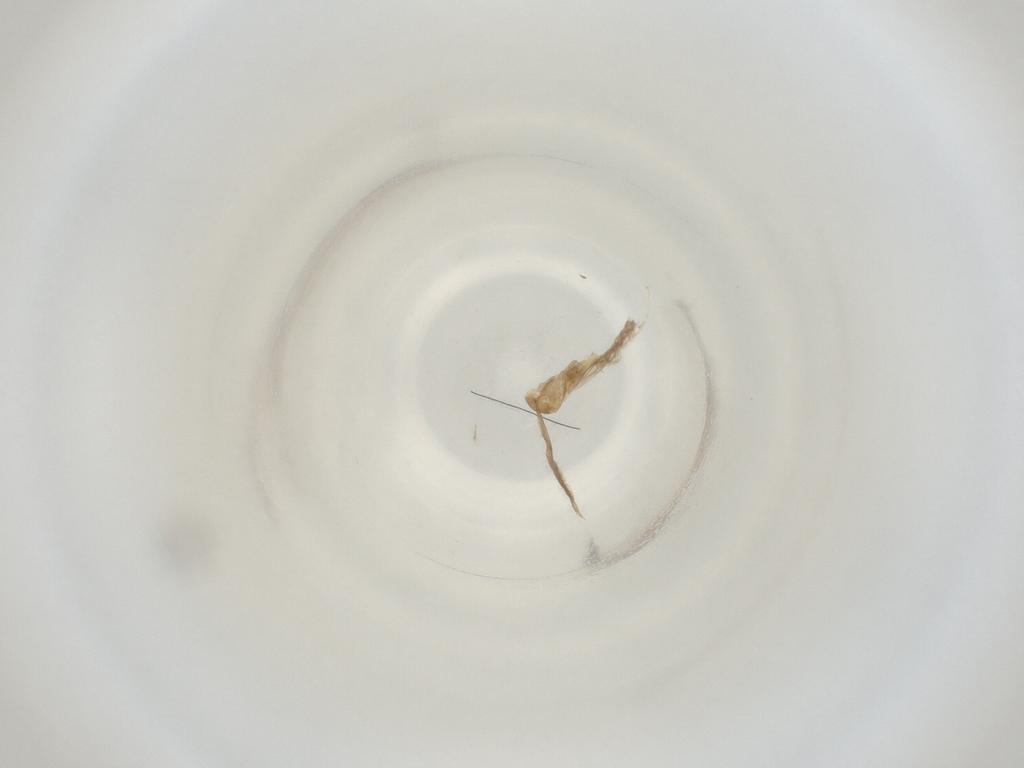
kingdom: Animalia
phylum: Arthropoda
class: Insecta
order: Diptera
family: Cecidomyiidae
